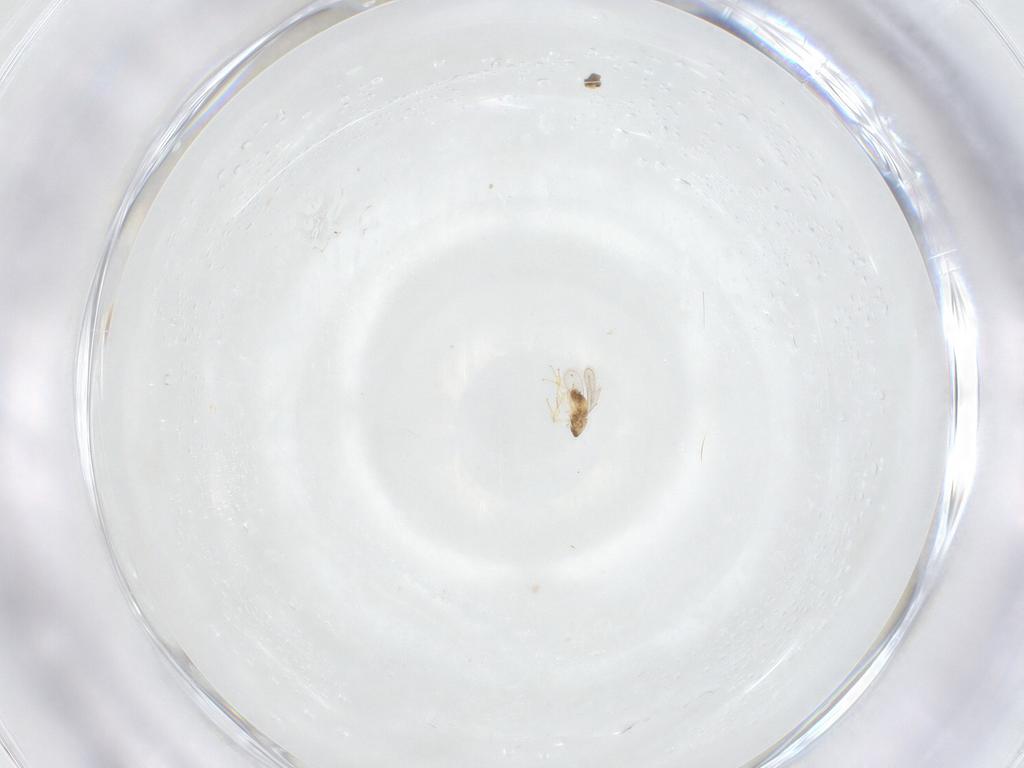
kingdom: Animalia
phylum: Arthropoda
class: Insecta
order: Hymenoptera
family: Aphelinidae
